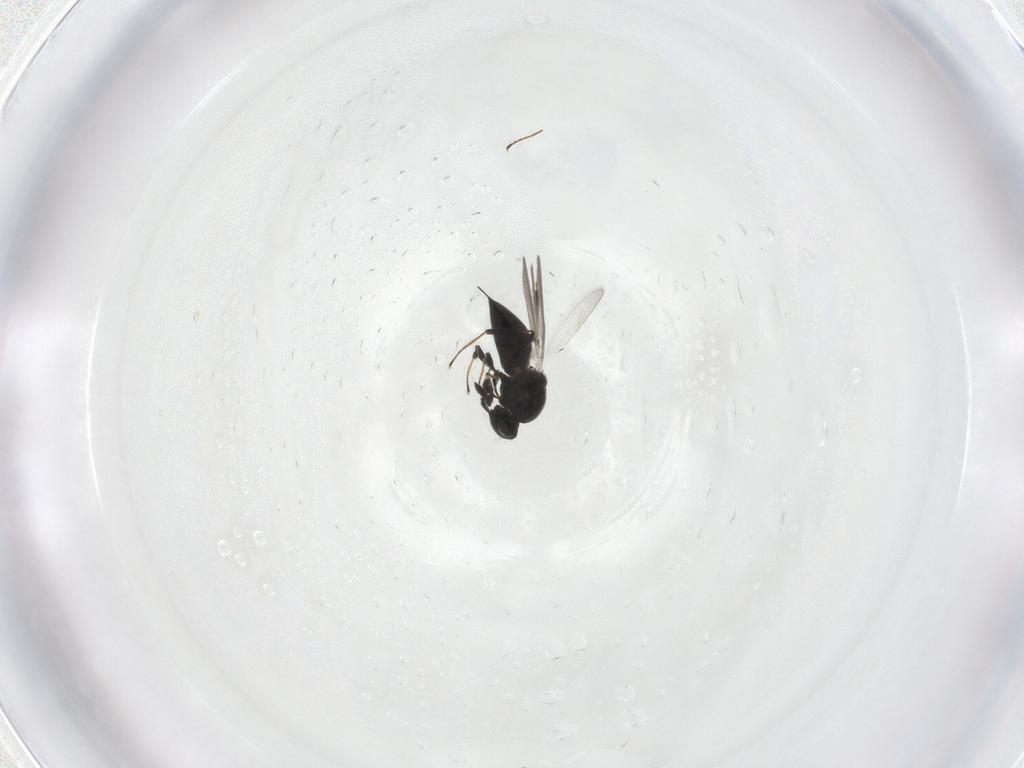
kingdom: Animalia
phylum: Arthropoda
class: Insecta
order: Hymenoptera
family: Platygastridae
